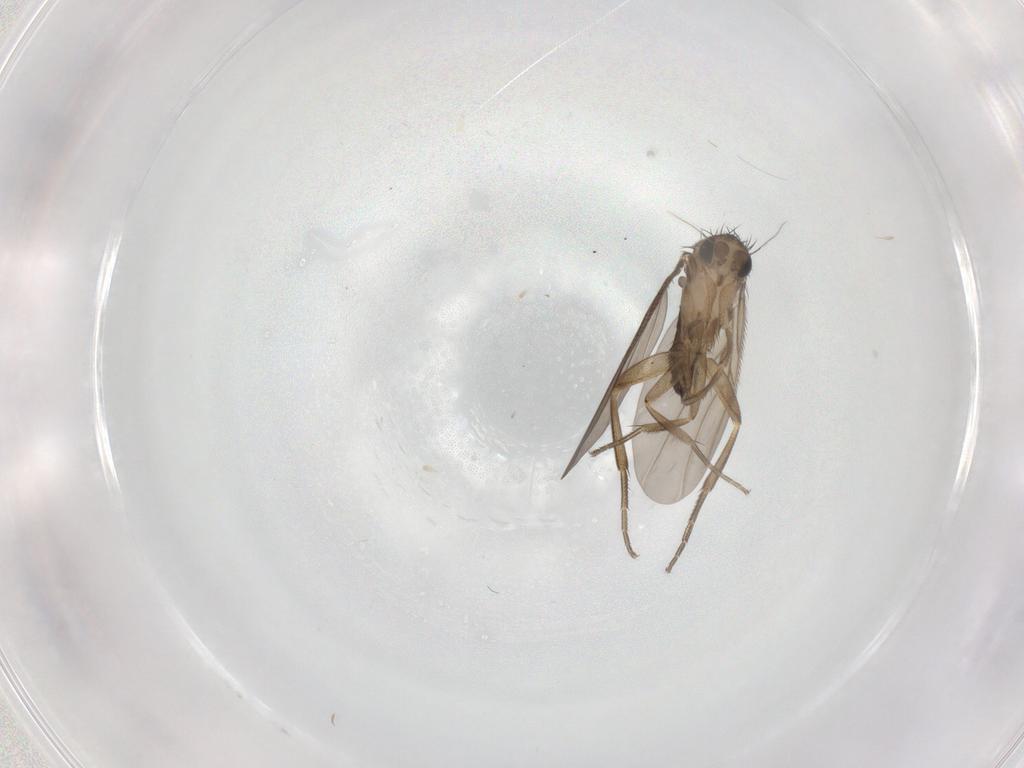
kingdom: Animalia
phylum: Arthropoda
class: Insecta
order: Diptera
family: Phoridae
